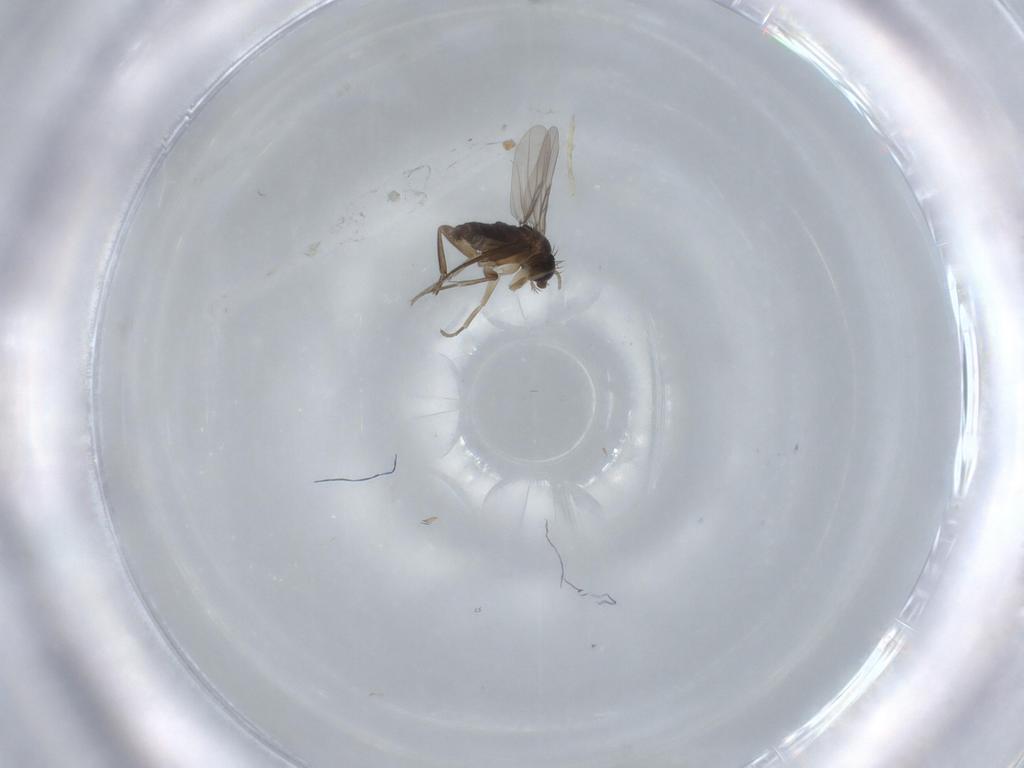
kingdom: Animalia
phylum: Arthropoda
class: Insecta
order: Diptera
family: Phoridae
